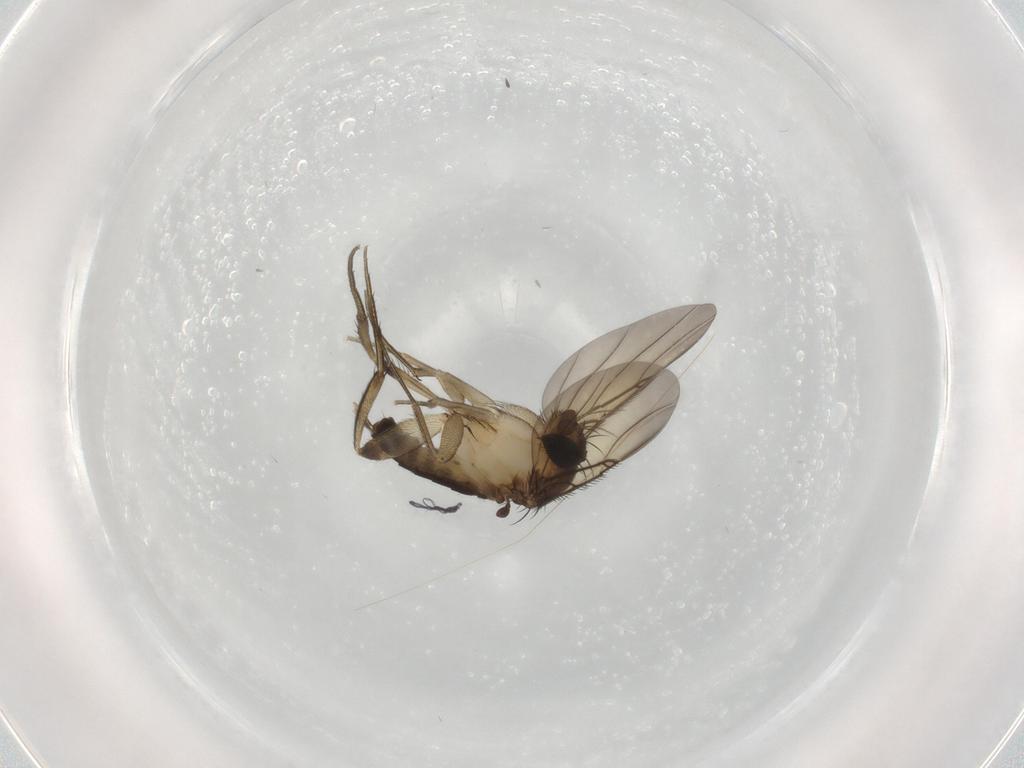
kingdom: Animalia
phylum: Arthropoda
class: Insecta
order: Diptera
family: Phoridae
